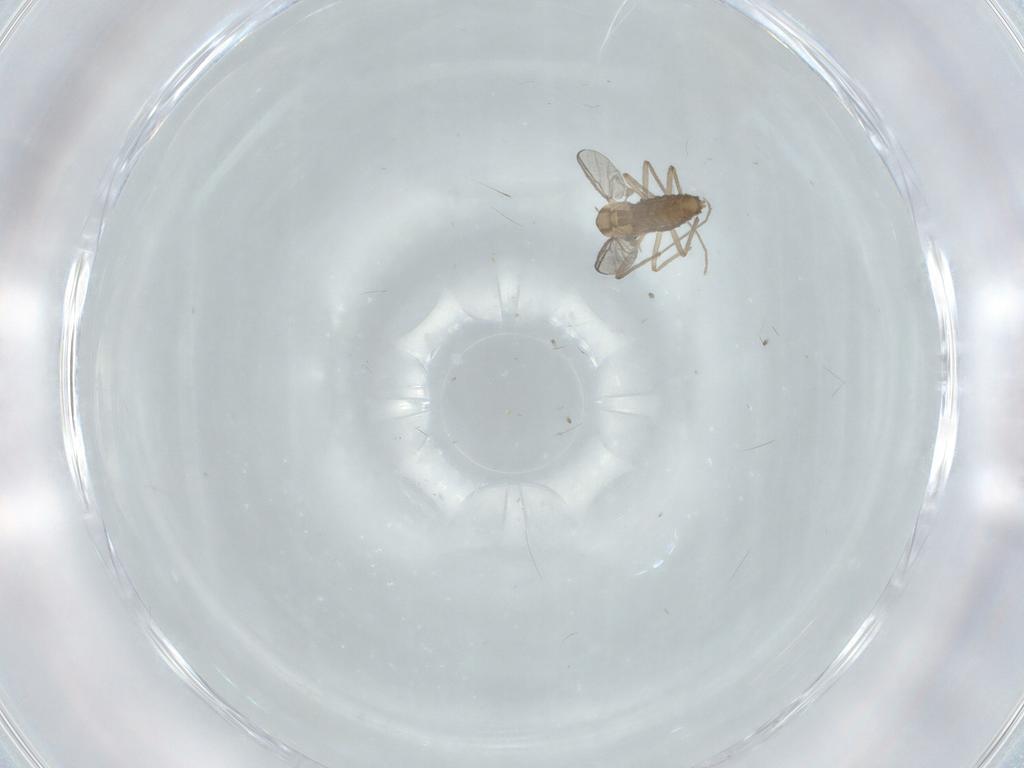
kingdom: Animalia
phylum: Arthropoda
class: Insecta
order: Diptera
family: Chironomidae
